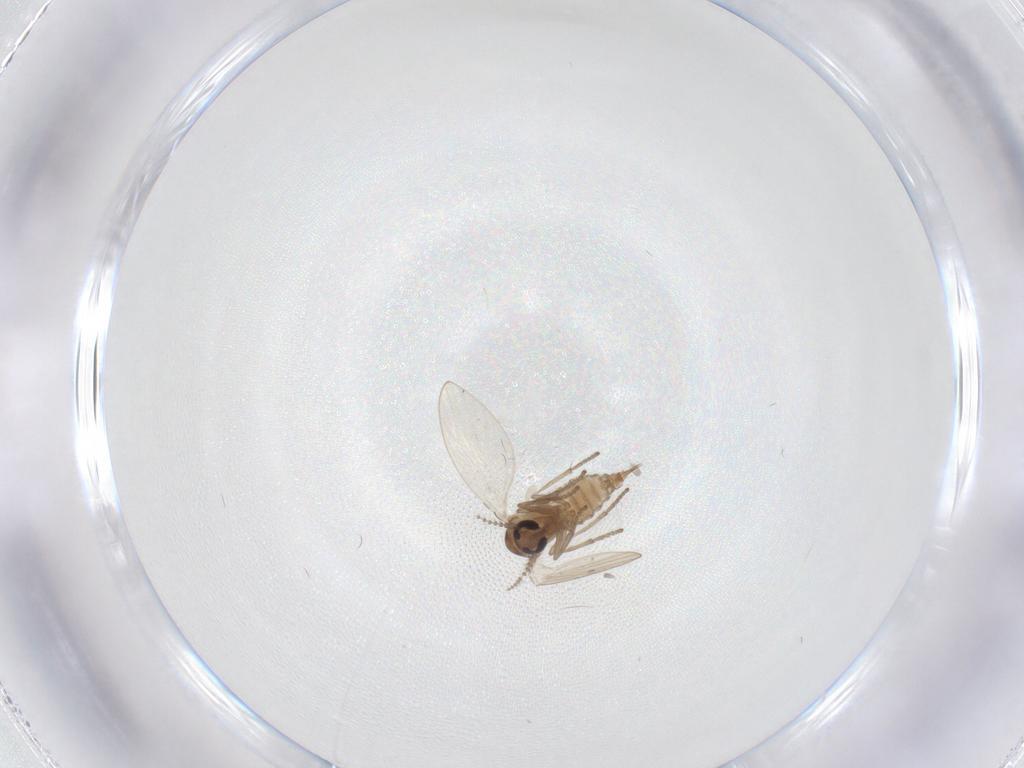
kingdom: Animalia
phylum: Arthropoda
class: Insecta
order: Diptera
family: Psychodidae
